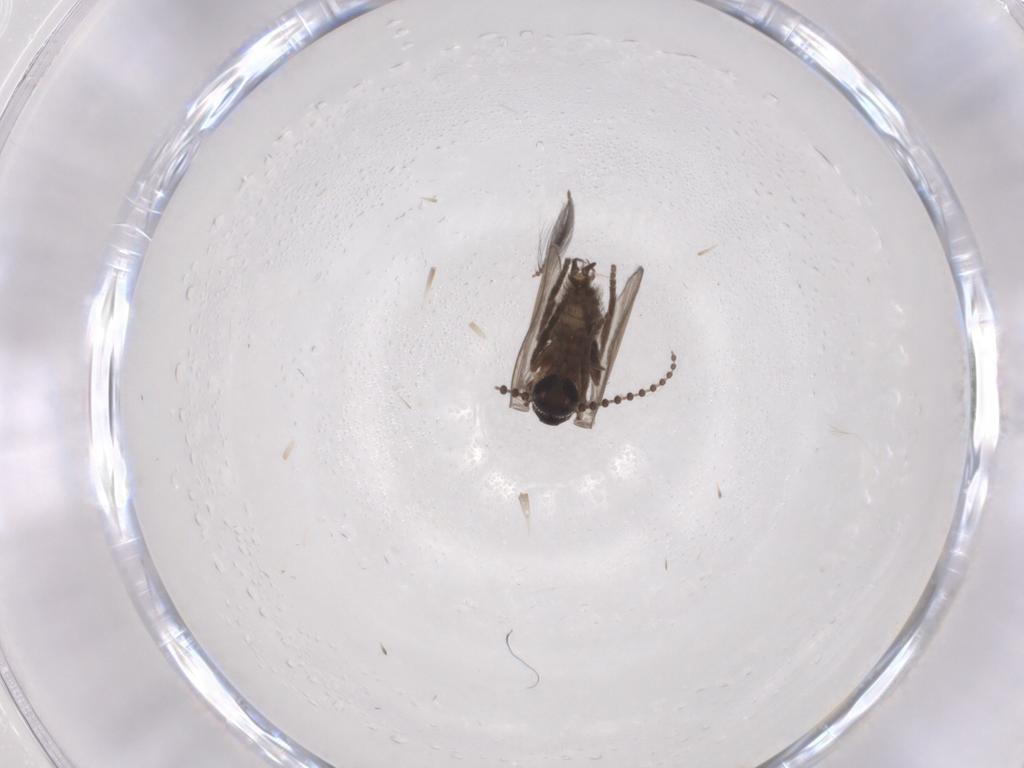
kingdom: Animalia
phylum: Arthropoda
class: Insecta
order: Diptera
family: Psychodidae
